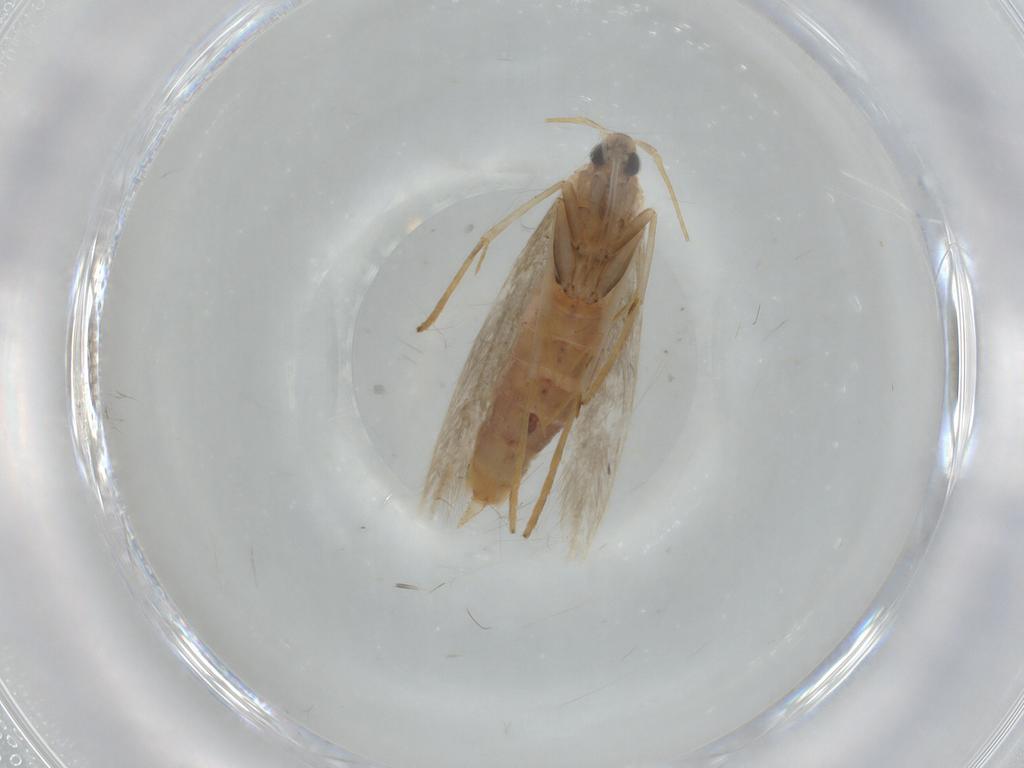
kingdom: Animalia
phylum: Arthropoda
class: Insecta
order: Lepidoptera
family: Coleophoridae
